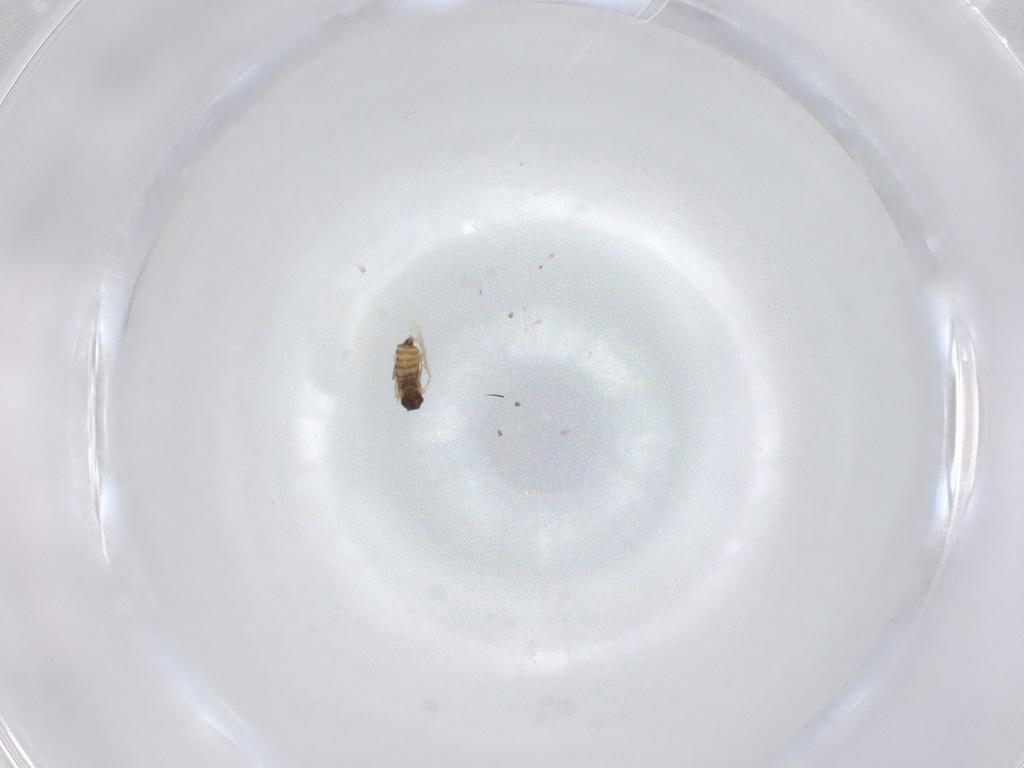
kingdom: Animalia
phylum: Arthropoda
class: Insecta
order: Diptera
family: Cecidomyiidae
